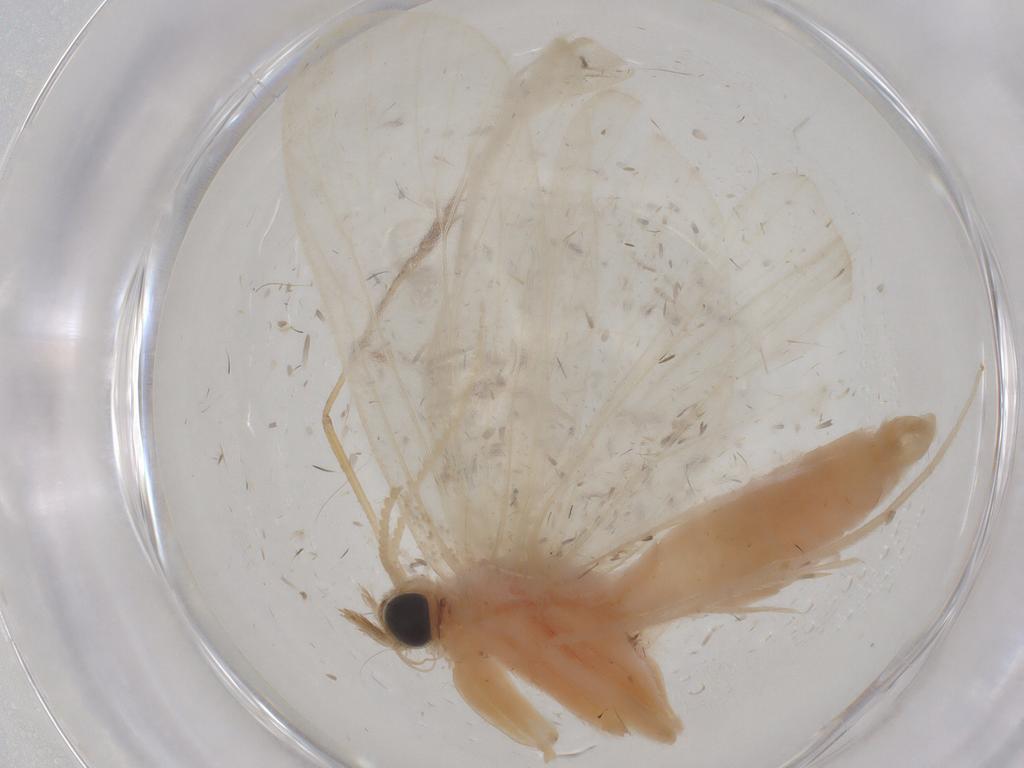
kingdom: Animalia
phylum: Arthropoda
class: Insecta
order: Lepidoptera
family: Crambidae
